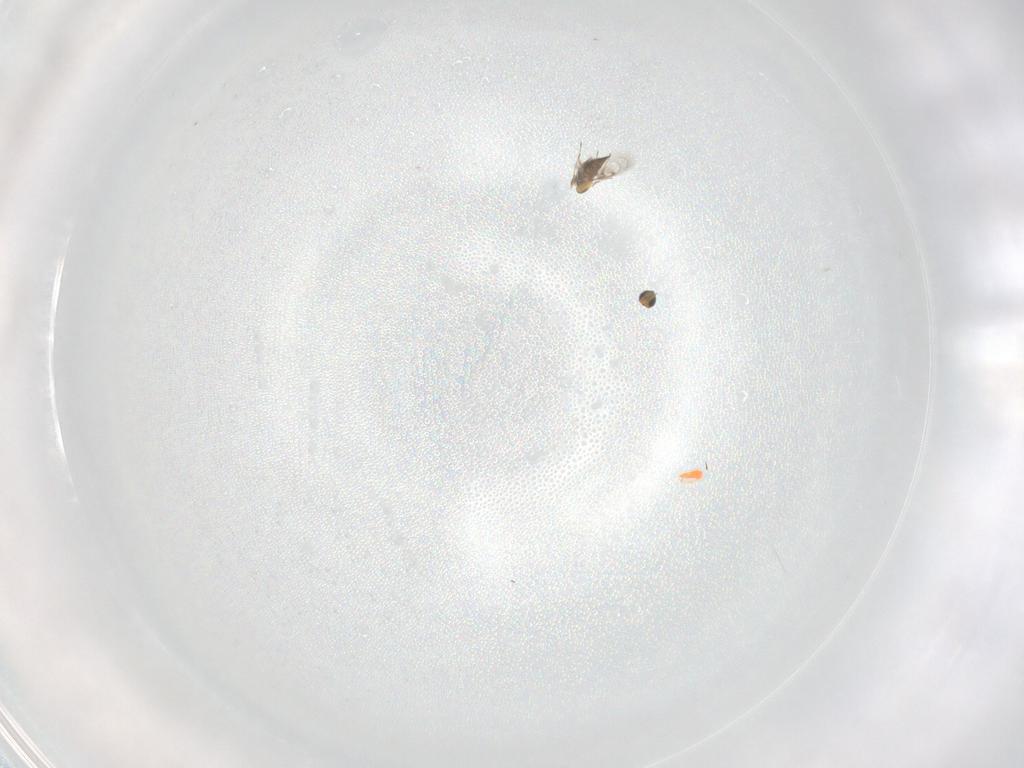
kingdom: Animalia
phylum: Arthropoda
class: Insecta
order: Hymenoptera
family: Trichogrammatidae
